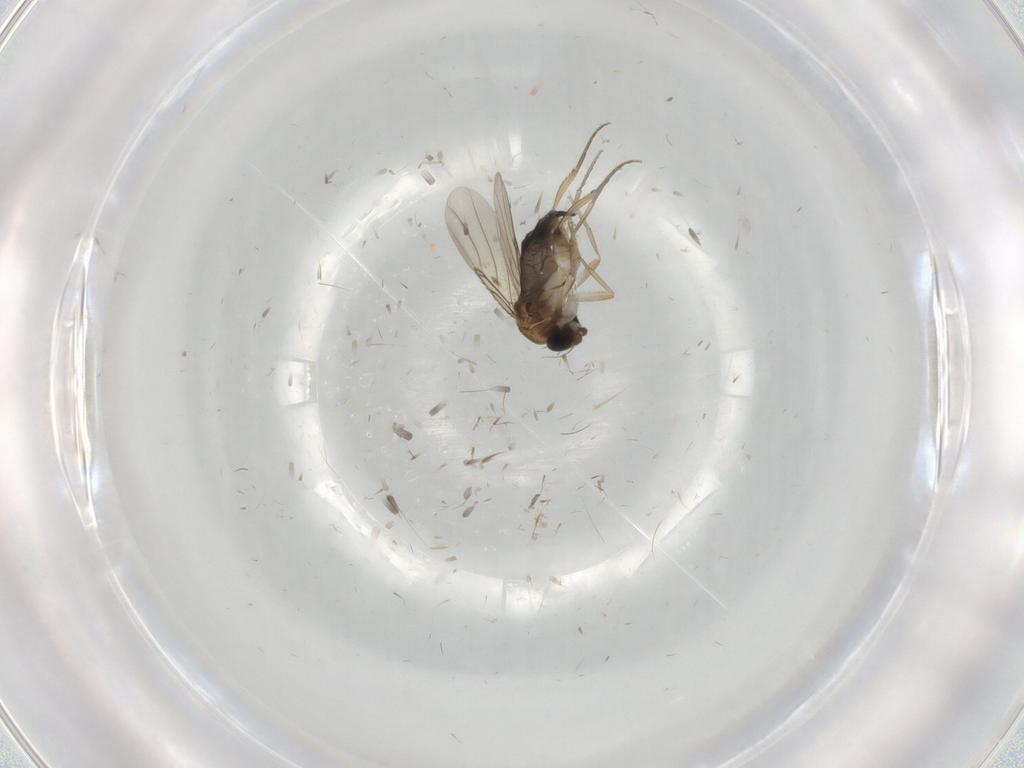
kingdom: Animalia
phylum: Arthropoda
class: Insecta
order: Diptera
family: Phoridae
